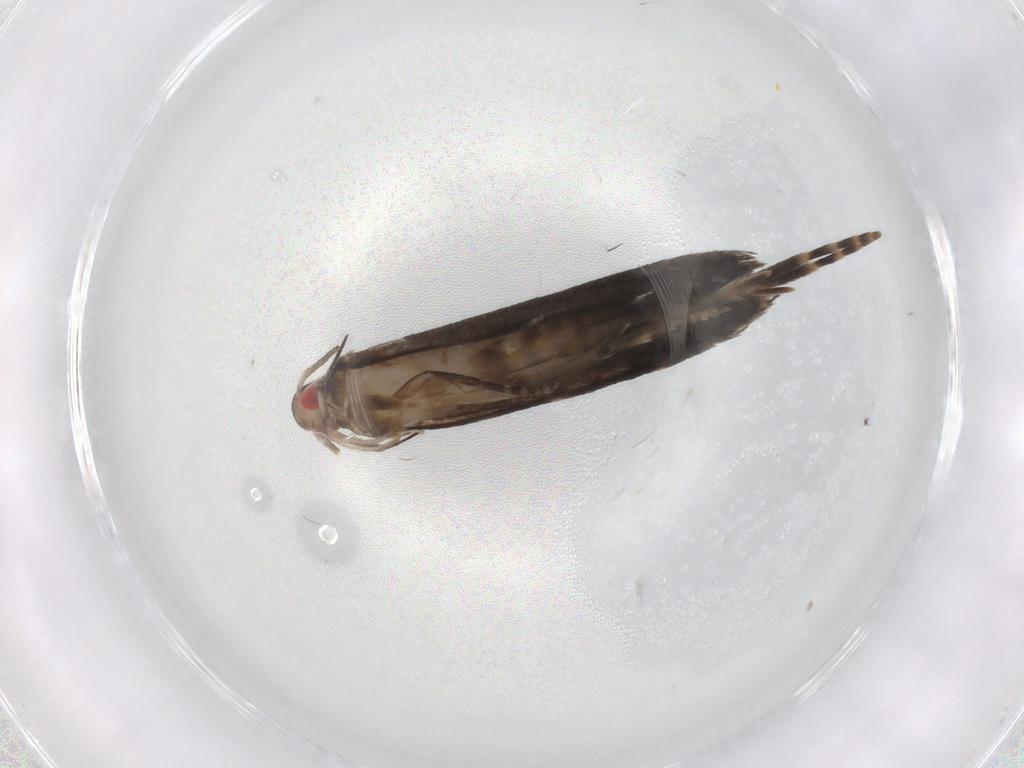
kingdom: Animalia
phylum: Arthropoda
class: Insecta
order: Lepidoptera
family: Gelechiidae
